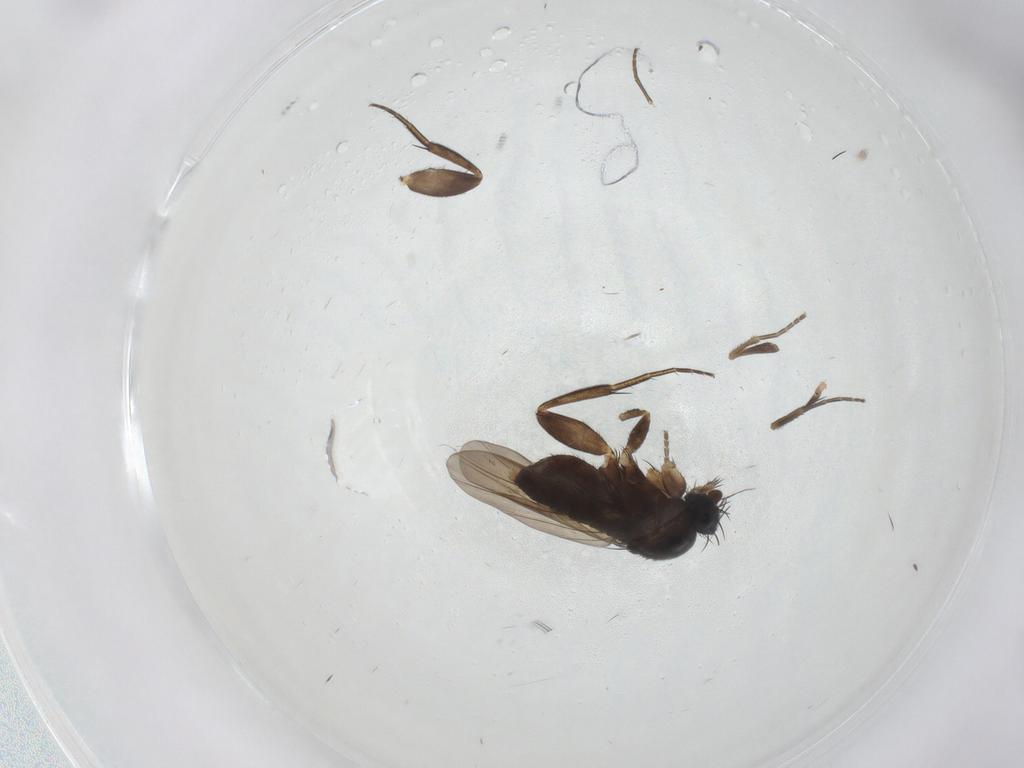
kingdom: Animalia
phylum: Arthropoda
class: Insecta
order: Diptera
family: Phoridae
